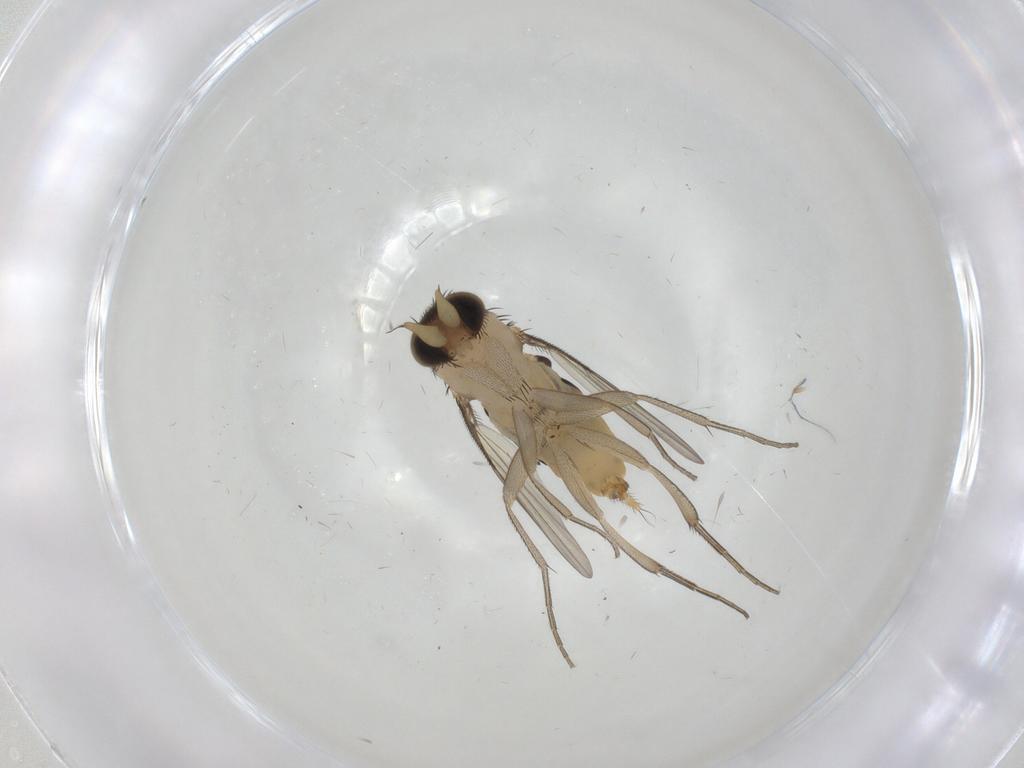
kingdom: Animalia
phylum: Arthropoda
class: Insecta
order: Diptera
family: Phoridae
